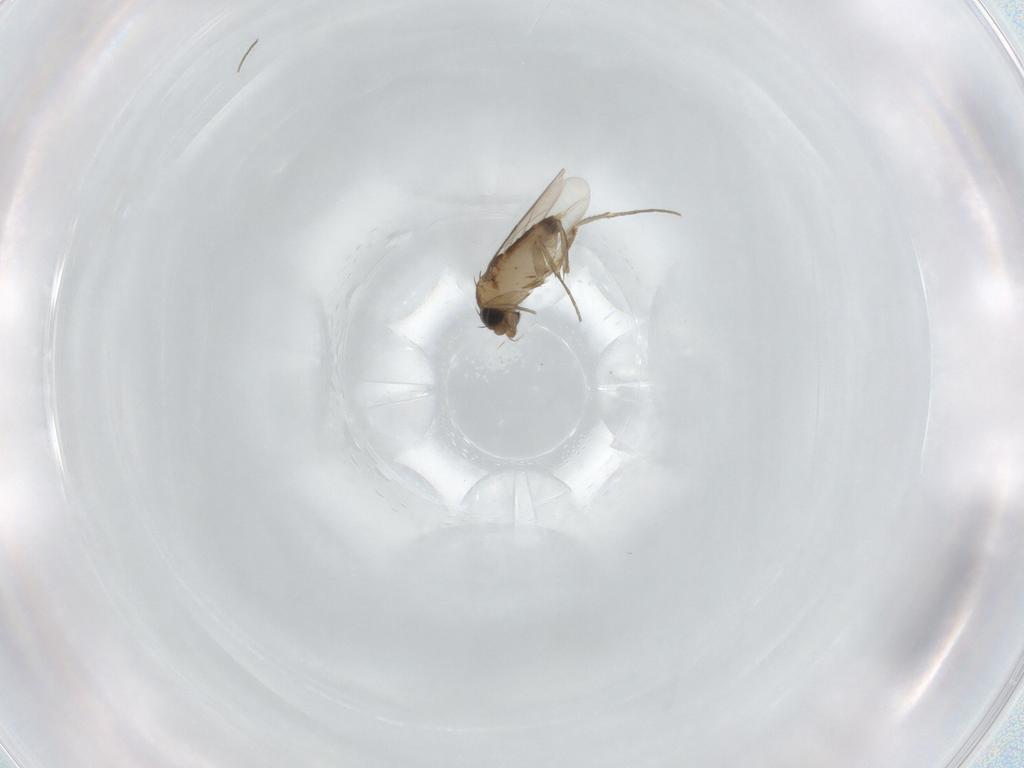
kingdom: Animalia
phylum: Arthropoda
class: Insecta
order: Diptera
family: Phoridae
